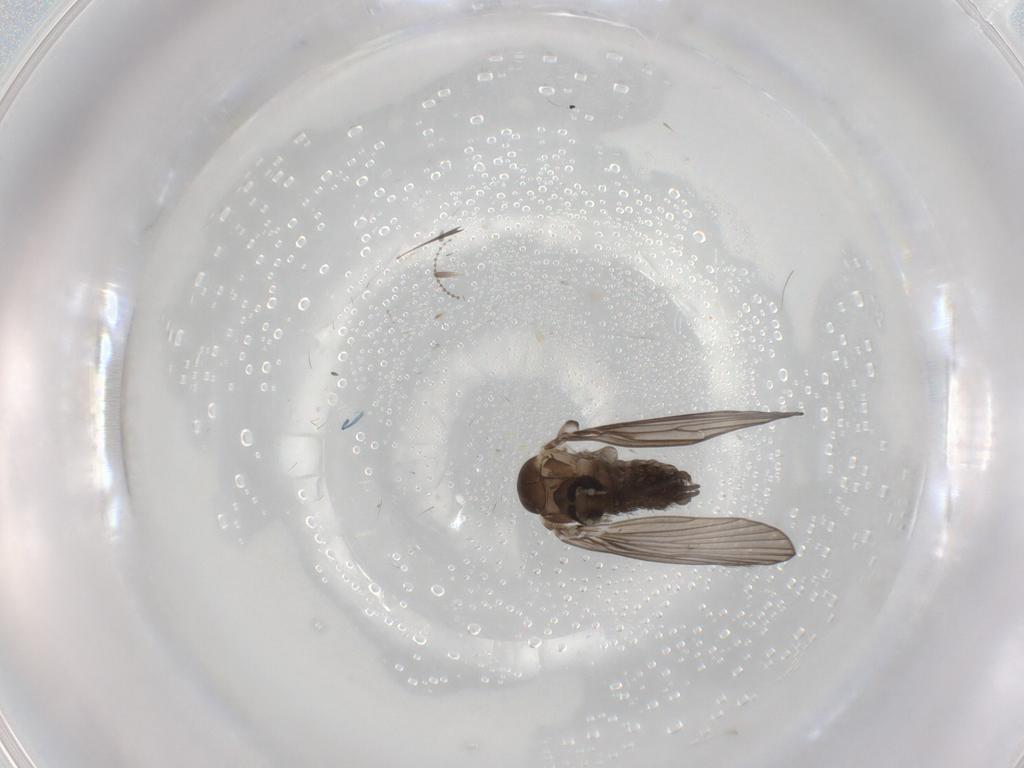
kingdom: Animalia
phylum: Arthropoda
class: Insecta
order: Diptera
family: Psychodidae
